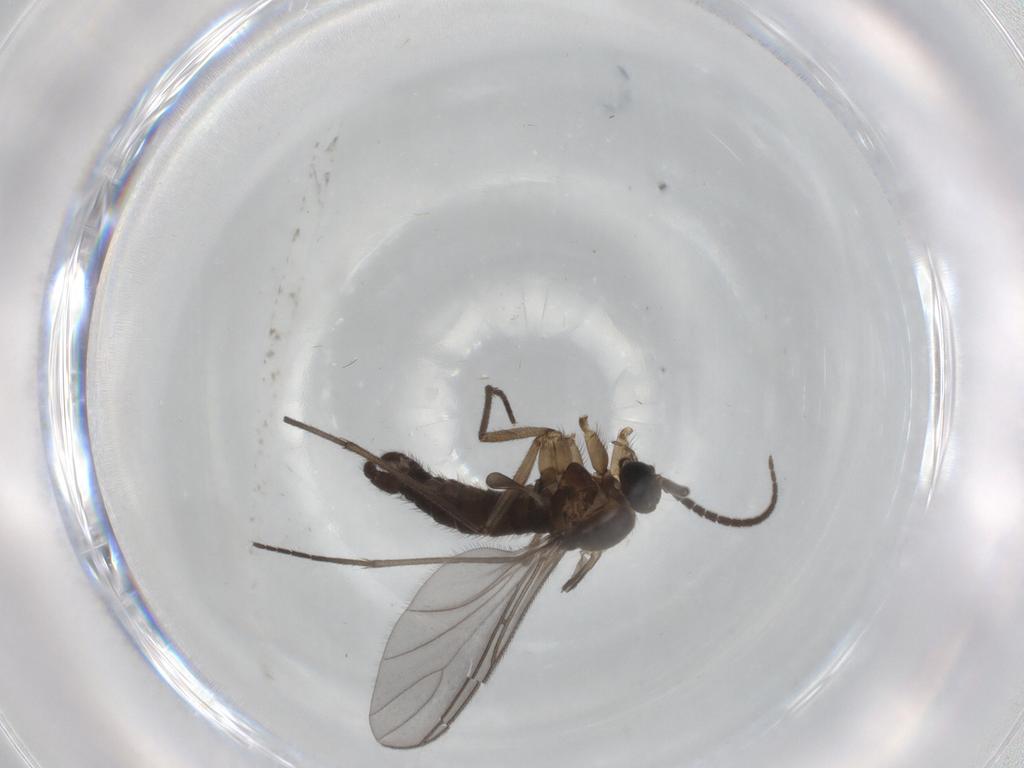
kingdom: Animalia
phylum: Arthropoda
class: Insecta
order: Diptera
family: Sciaridae
